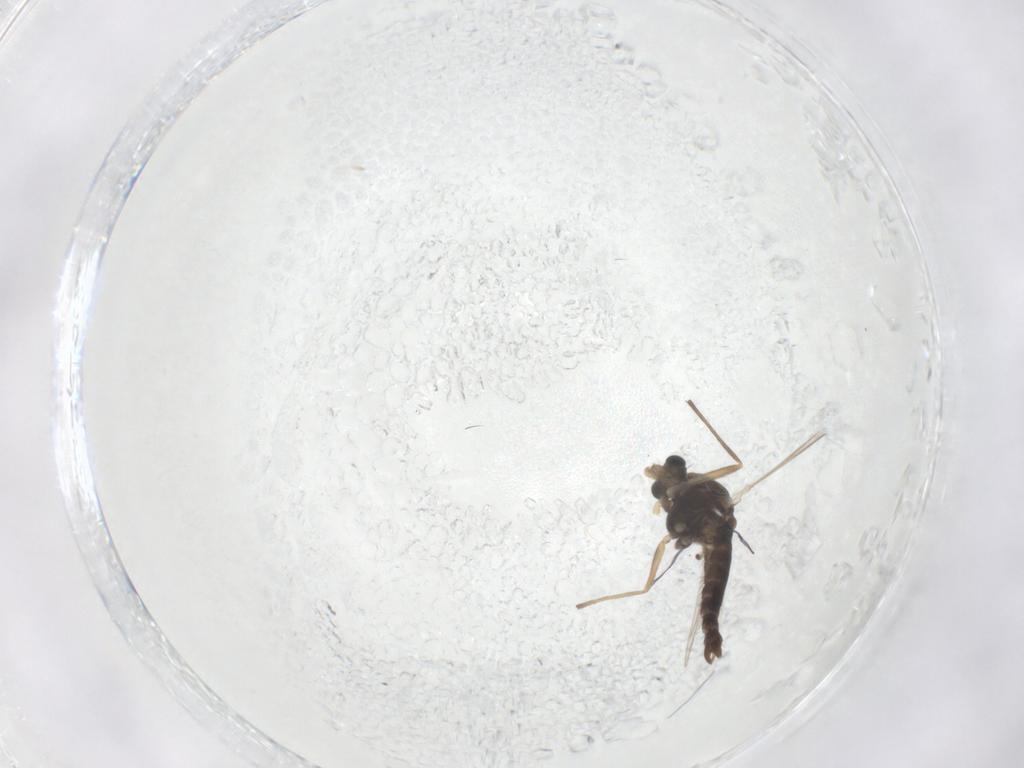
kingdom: Animalia
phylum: Arthropoda
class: Insecta
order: Diptera
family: Chironomidae
